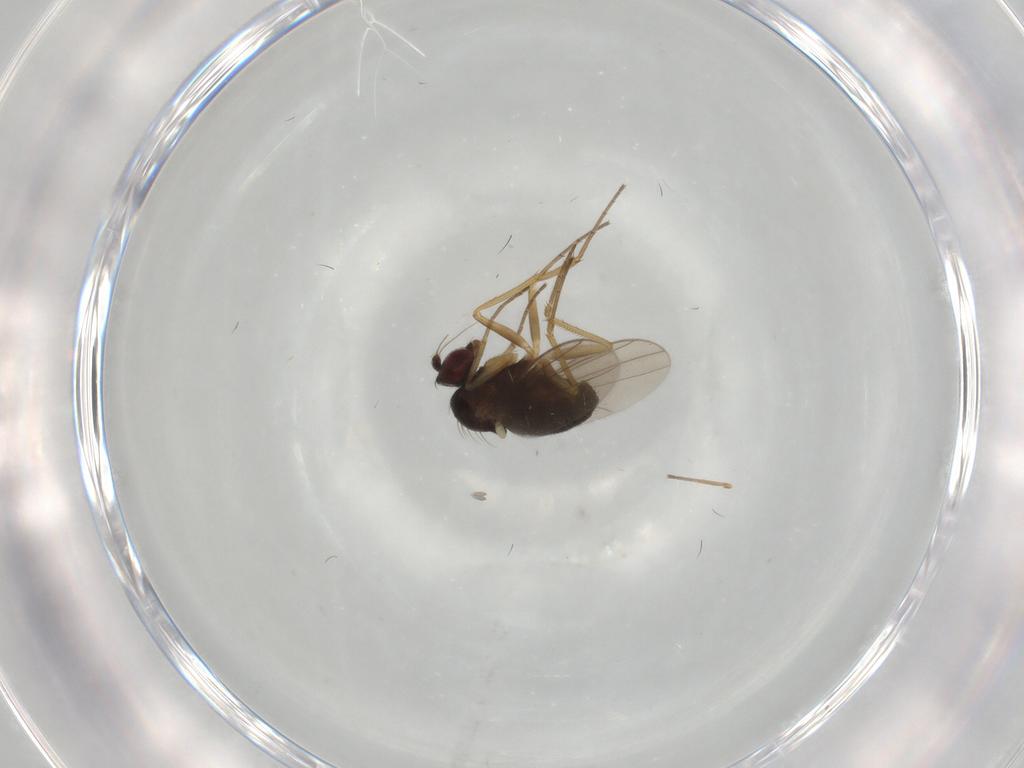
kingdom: Animalia
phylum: Arthropoda
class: Insecta
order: Diptera
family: Dolichopodidae
